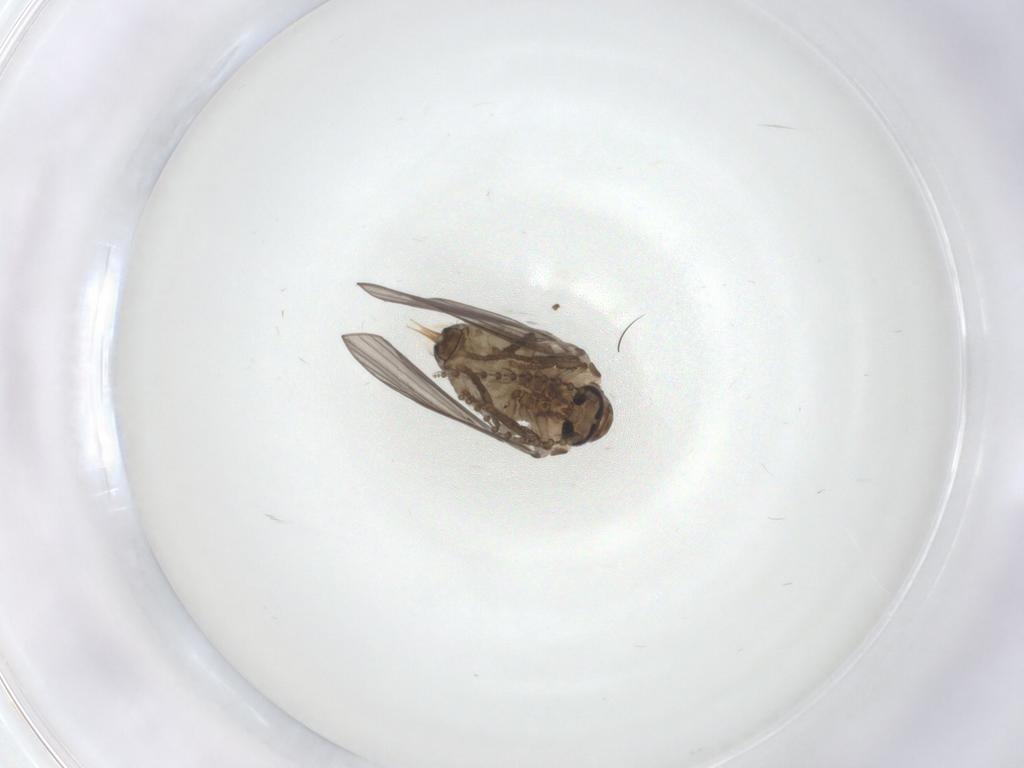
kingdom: Animalia
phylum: Arthropoda
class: Insecta
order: Diptera
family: Psychodidae
